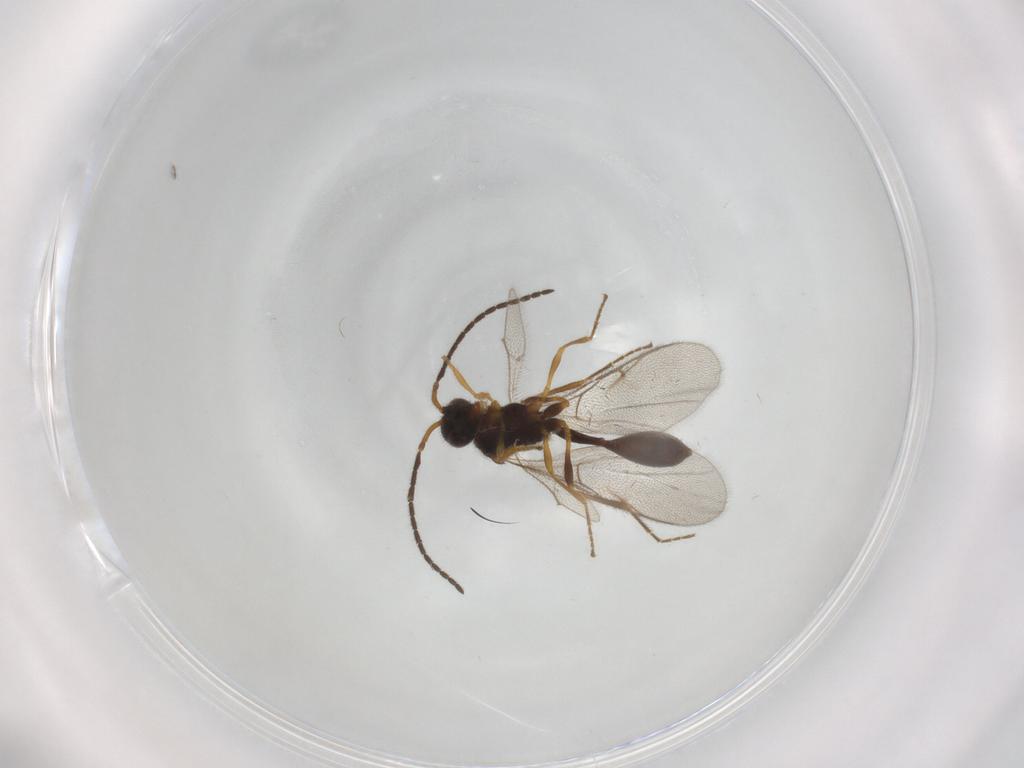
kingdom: Animalia
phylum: Arthropoda
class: Insecta
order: Hymenoptera
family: Diapriidae
